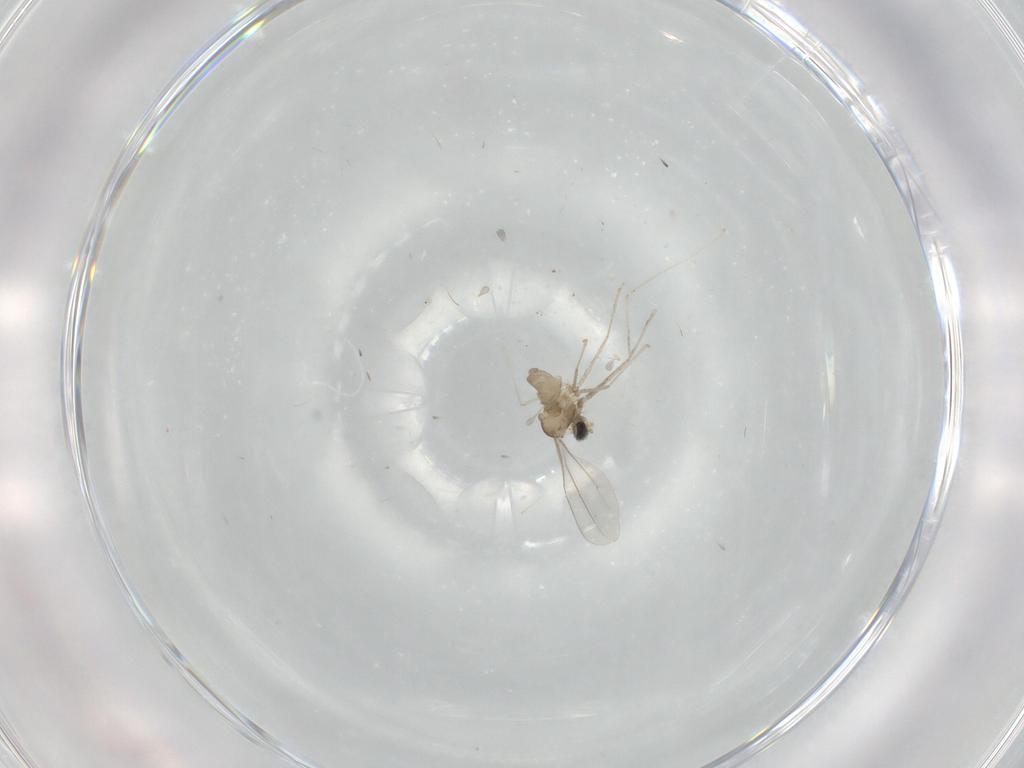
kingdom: Animalia
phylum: Arthropoda
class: Insecta
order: Diptera
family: Cecidomyiidae
